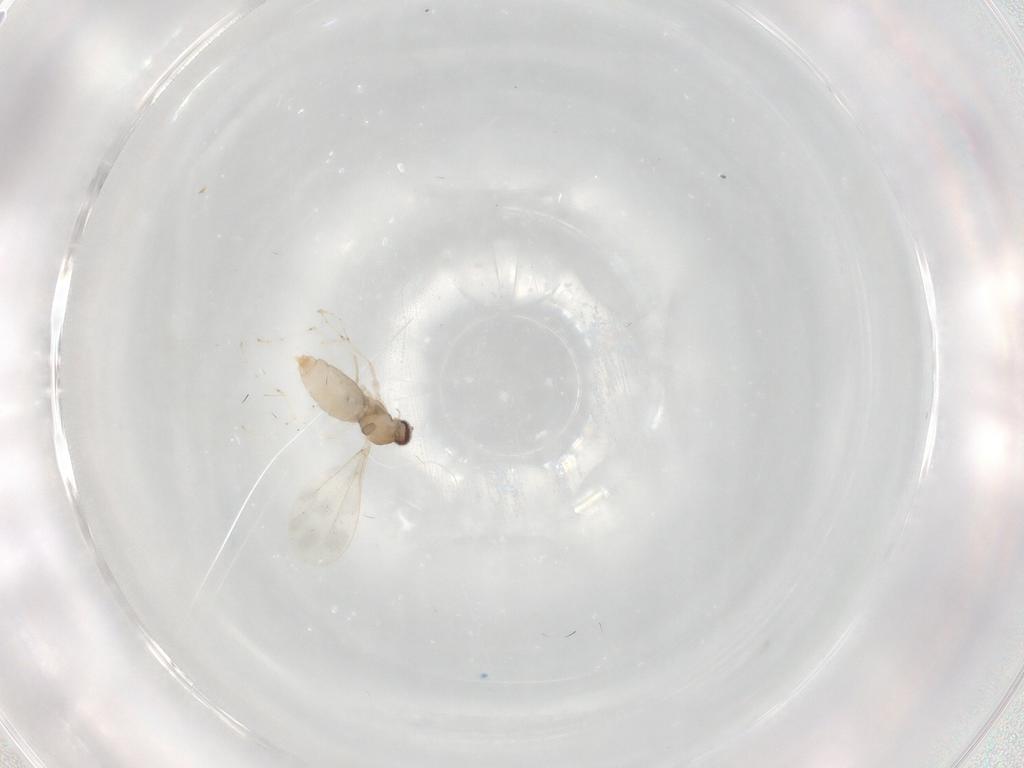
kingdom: Animalia
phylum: Arthropoda
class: Insecta
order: Diptera
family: Cecidomyiidae
